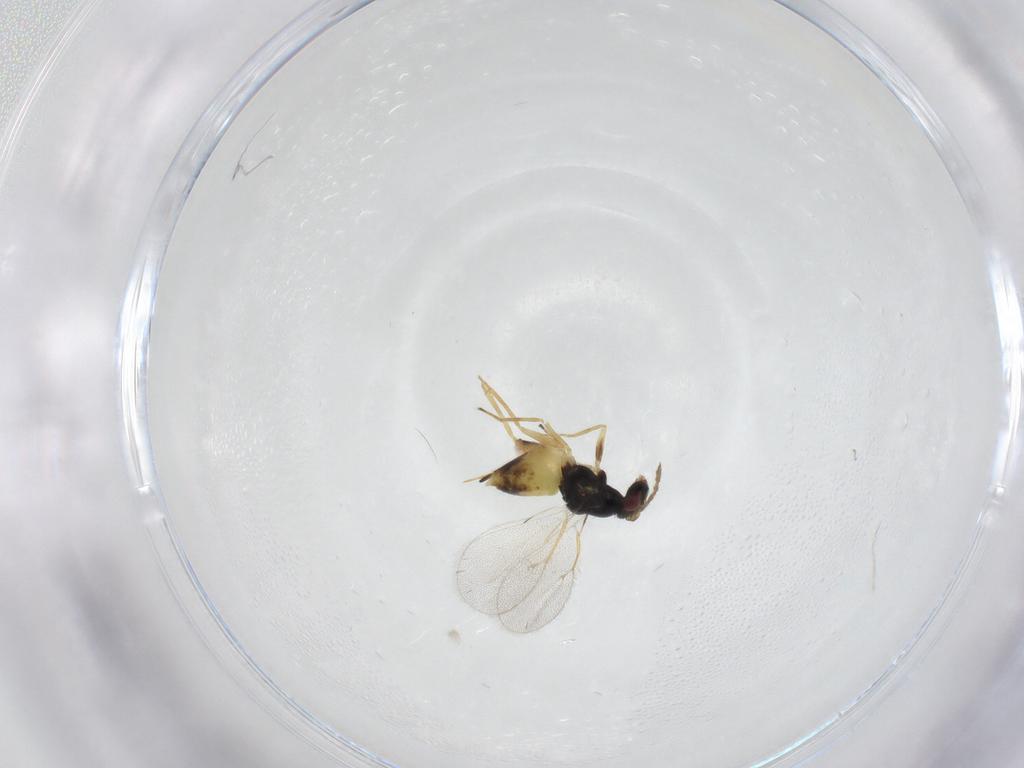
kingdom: Animalia
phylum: Arthropoda
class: Insecta
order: Hymenoptera
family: Eulophidae
